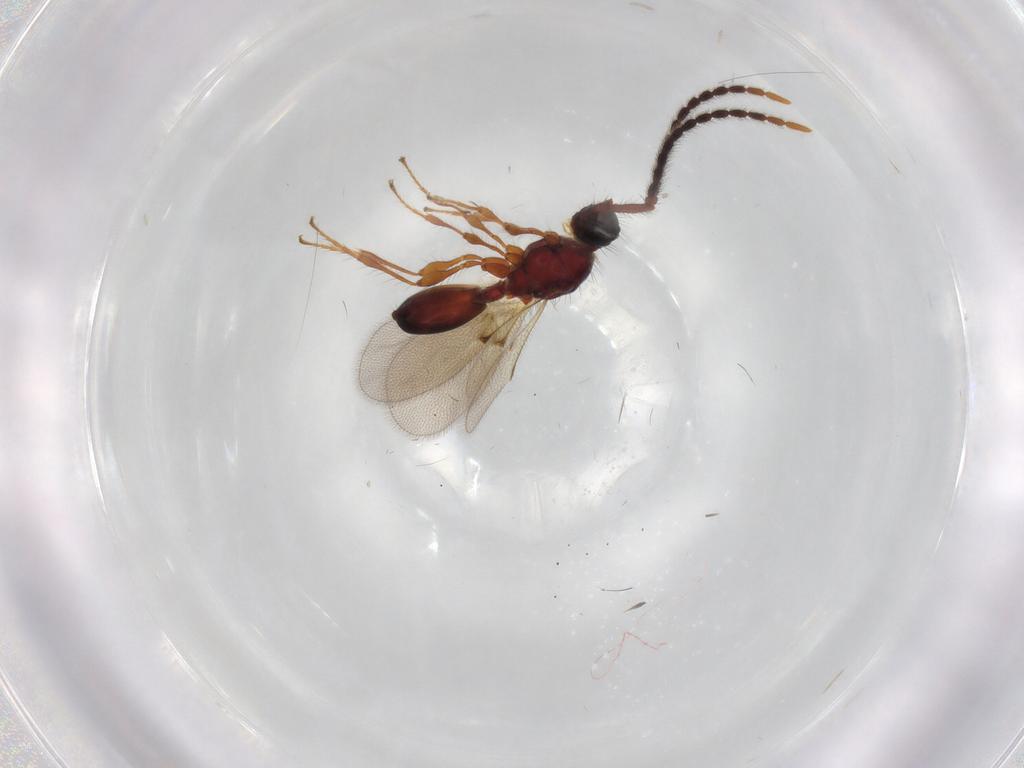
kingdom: Animalia
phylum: Arthropoda
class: Insecta
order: Hymenoptera
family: Diapriidae
